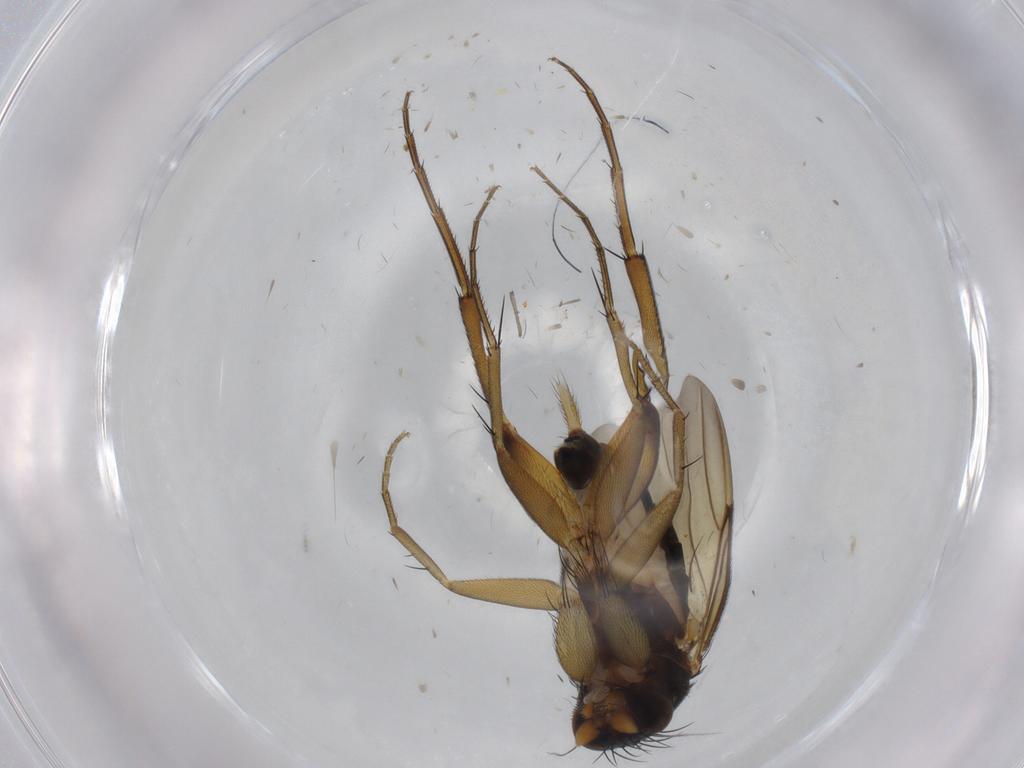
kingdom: Animalia
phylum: Arthropoda
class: Insecta
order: Diptera
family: Phoridae
